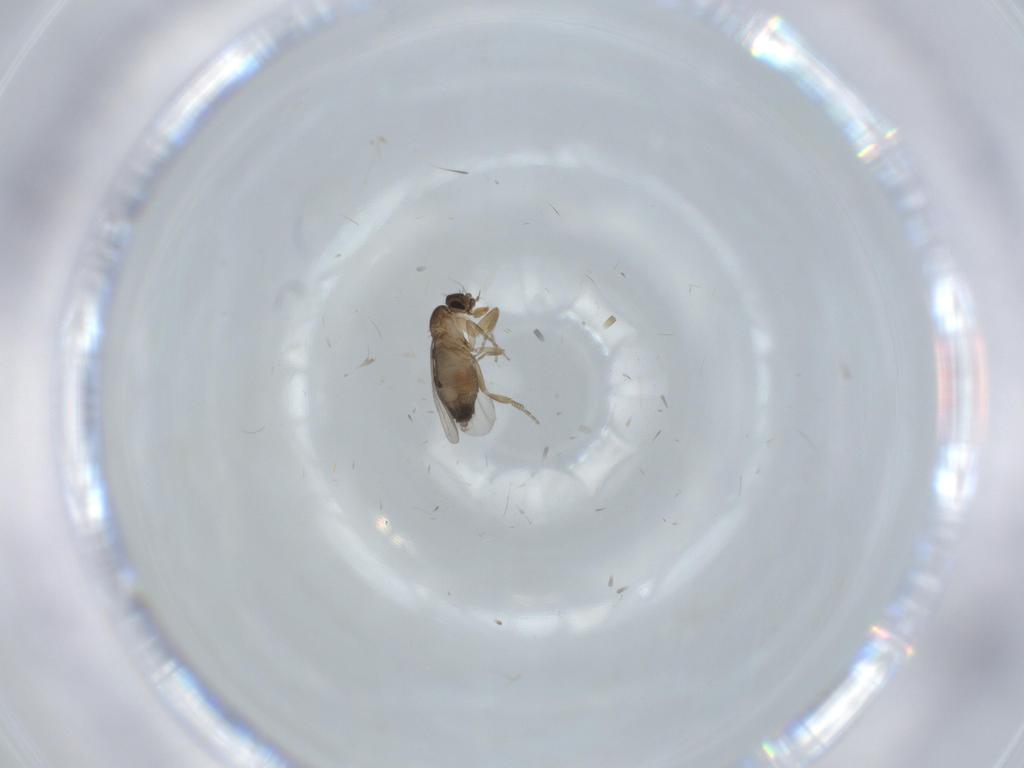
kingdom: Animalia
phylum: Arthropoda
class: Insecta
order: Diptera
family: Phoridae
